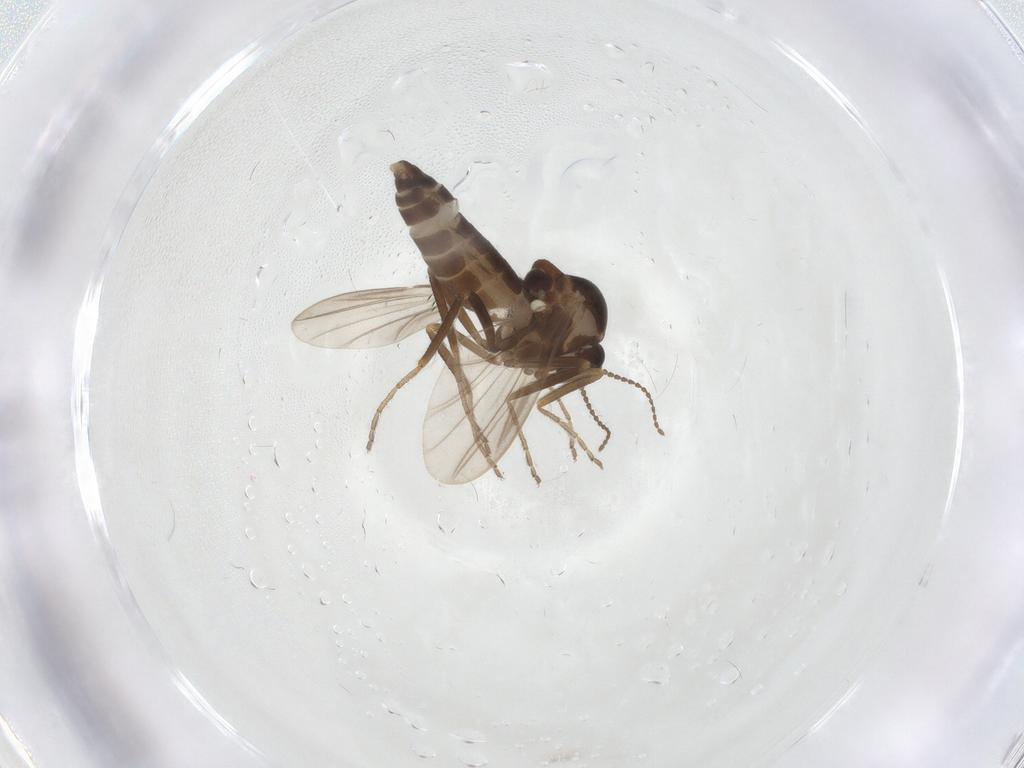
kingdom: Animalia
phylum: Arthropoda
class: Insecta
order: Diptera
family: Ceratopogonidae
